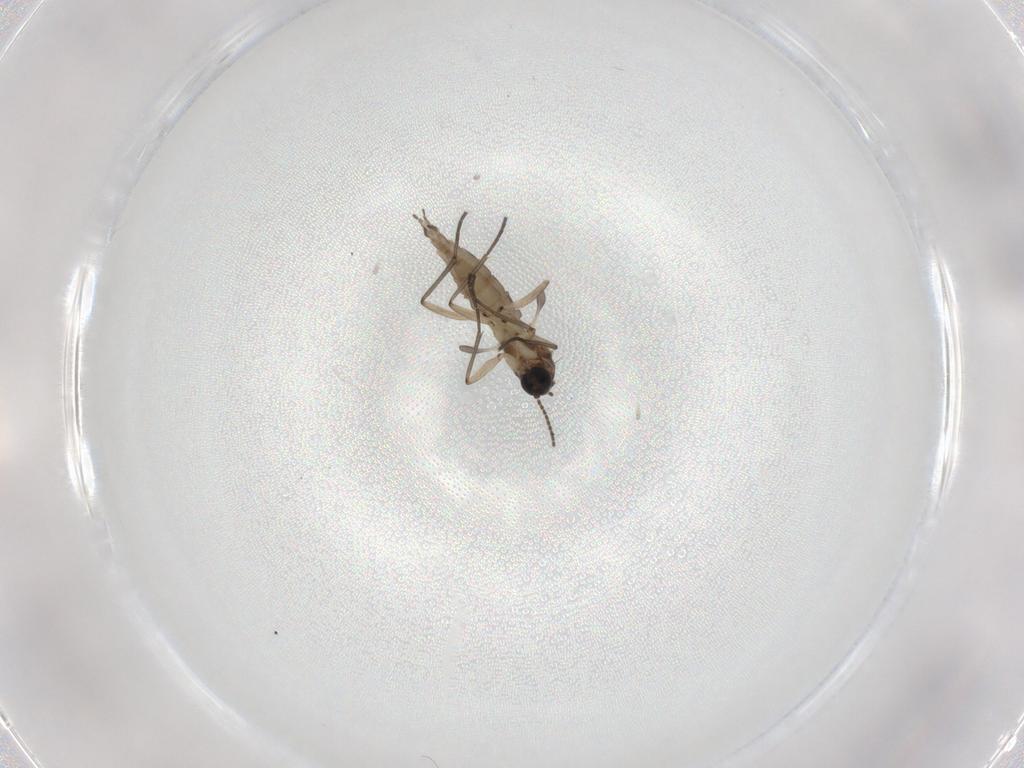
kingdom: Animalia
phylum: Arthropoda
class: Insecta
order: Diptera
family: Sciaridae
